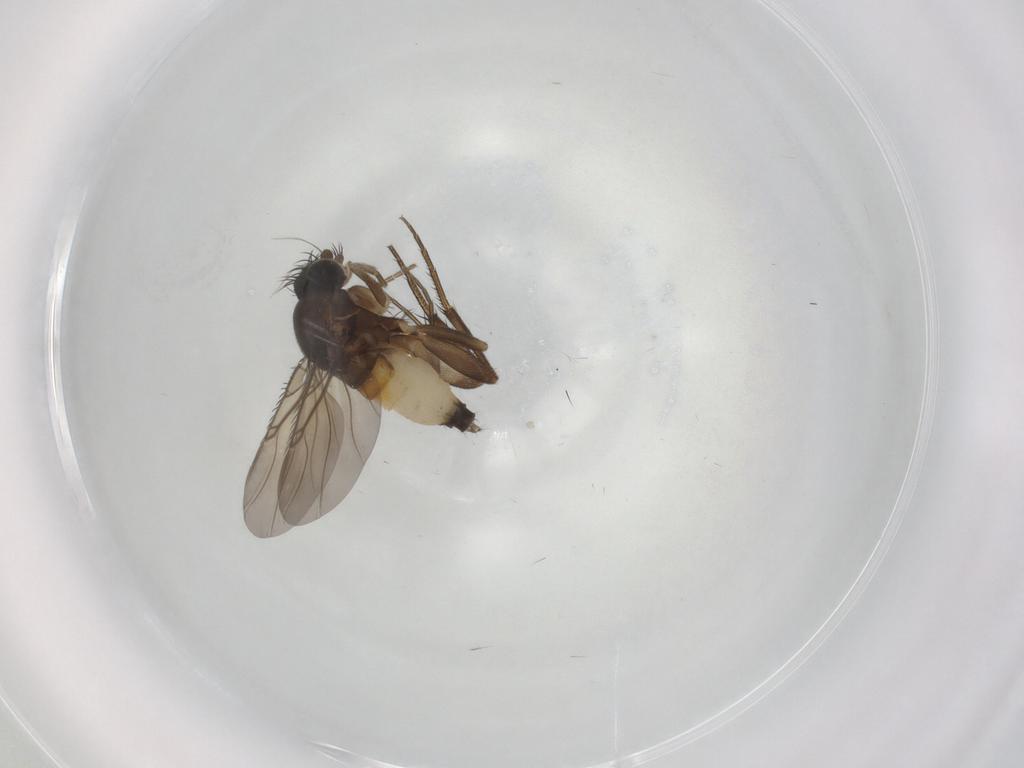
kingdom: Animalia
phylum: Arthropoda
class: Insecta
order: Diptera
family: Phoridae
